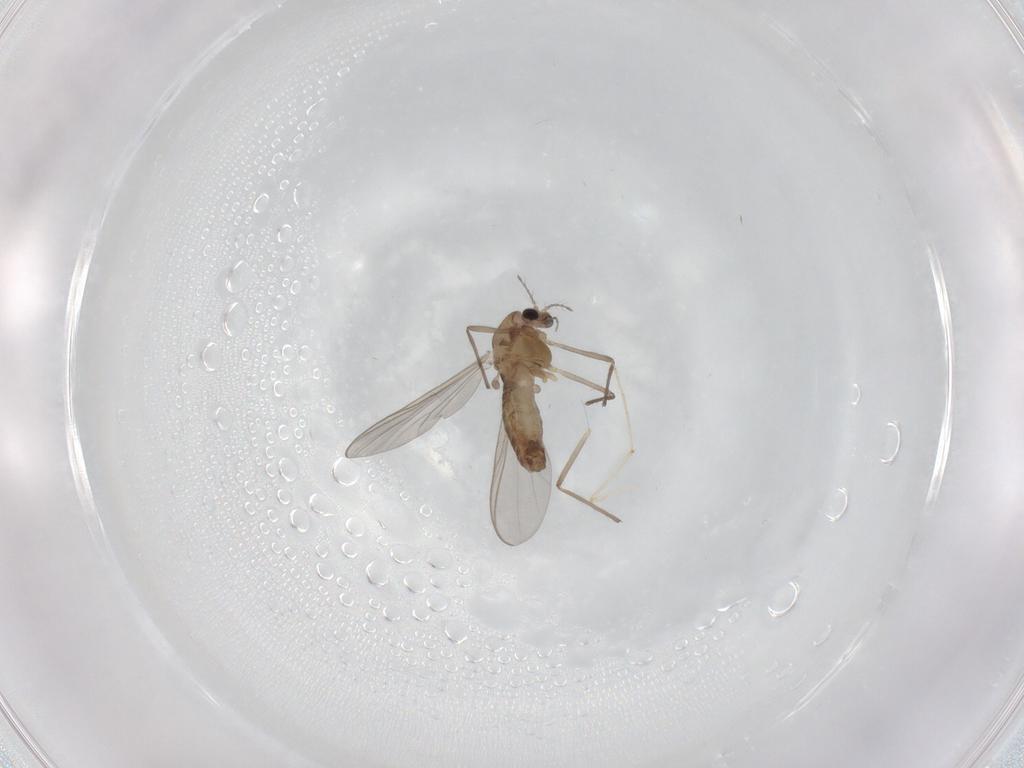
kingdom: Animalia
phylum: Arthropoda
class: Insecta
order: Diptera
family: Chironomidae
